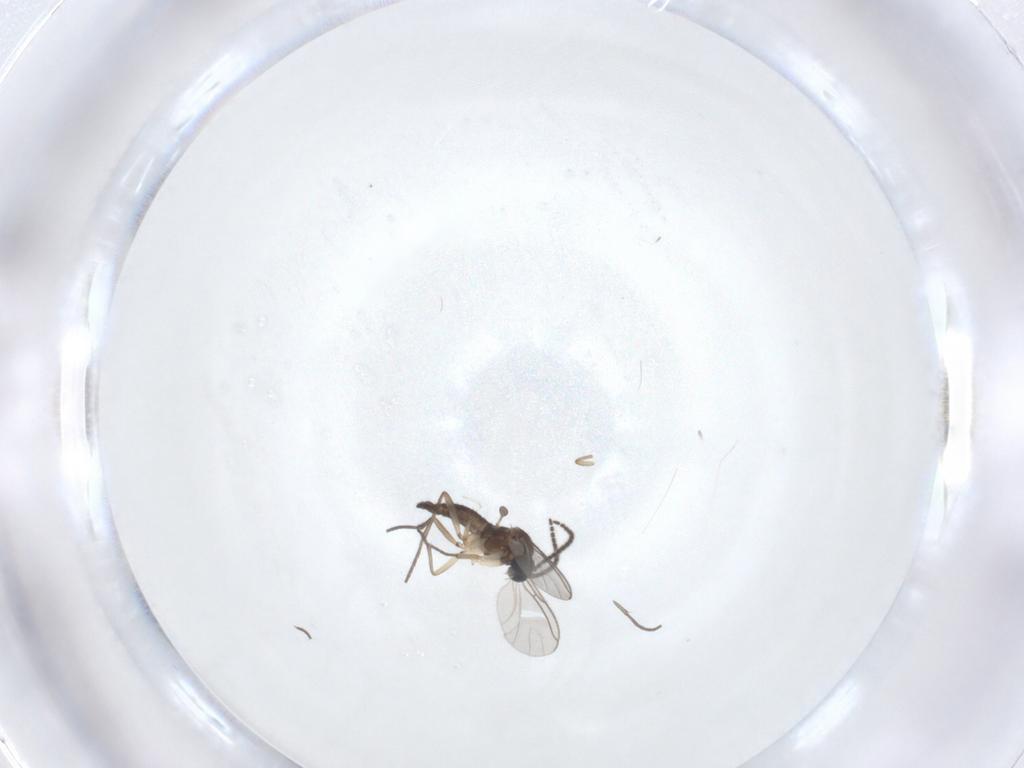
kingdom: Animalia
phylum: Arthropoda
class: Insecta
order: Diptera
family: Sciaridae
